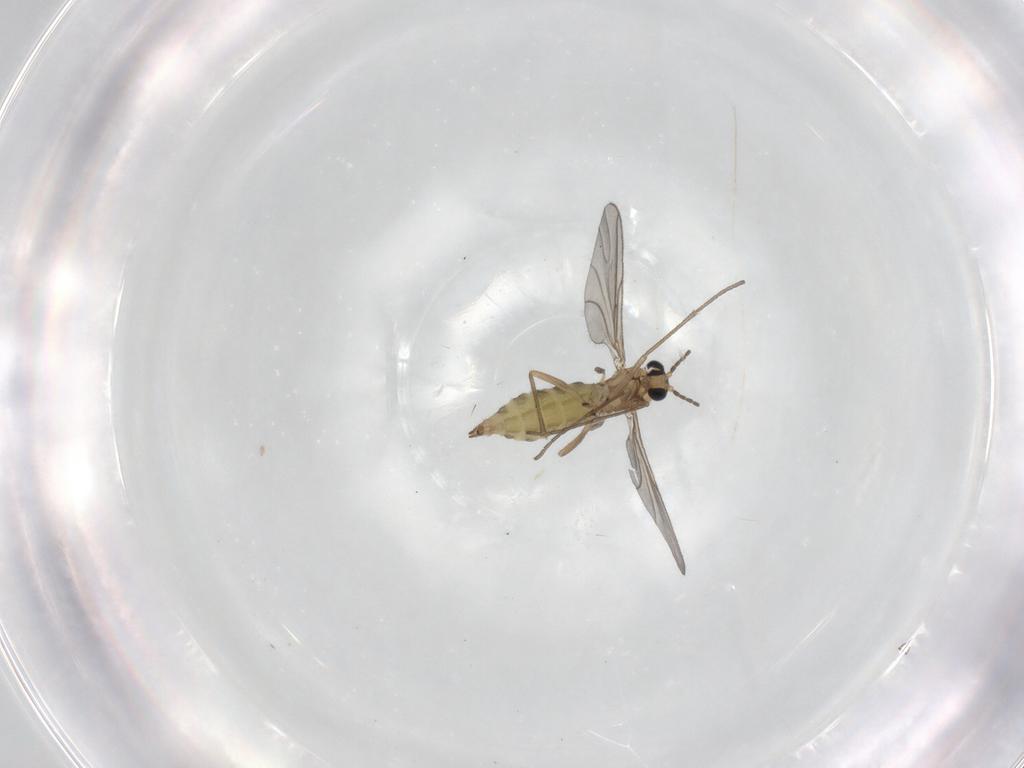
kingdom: Animalia
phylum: Arthropoda
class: Insecta
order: Diptera
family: Sciaridae
